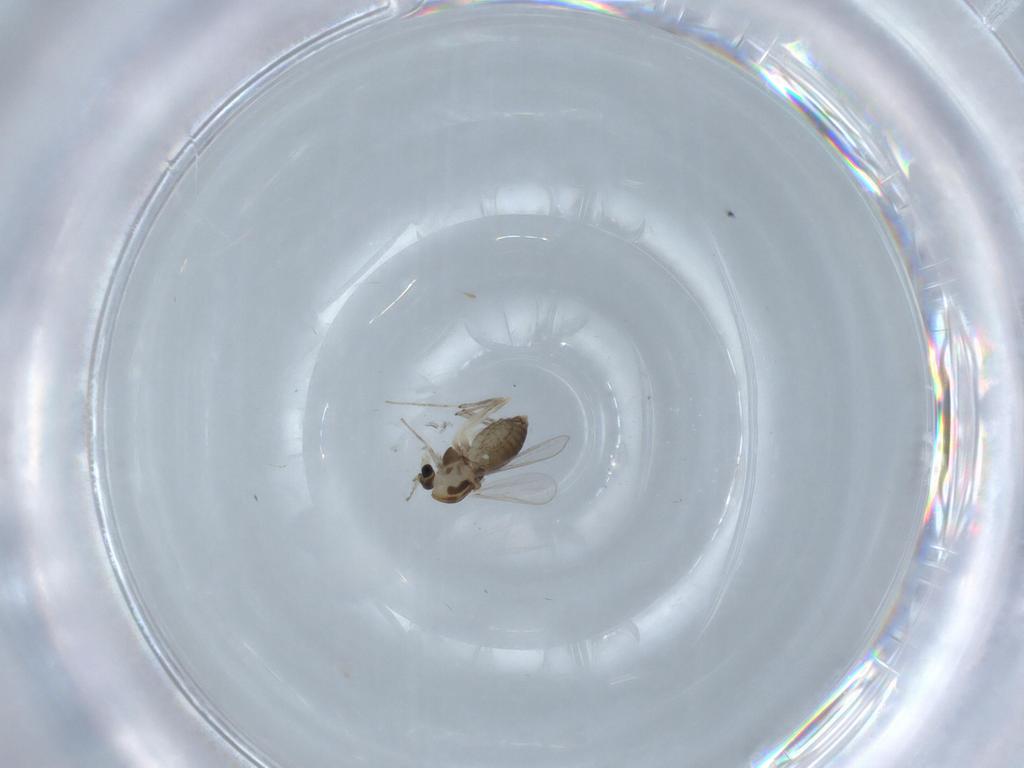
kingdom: Animalia
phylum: Arthropoda
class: Insecta
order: Diptera
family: Chironomidae
